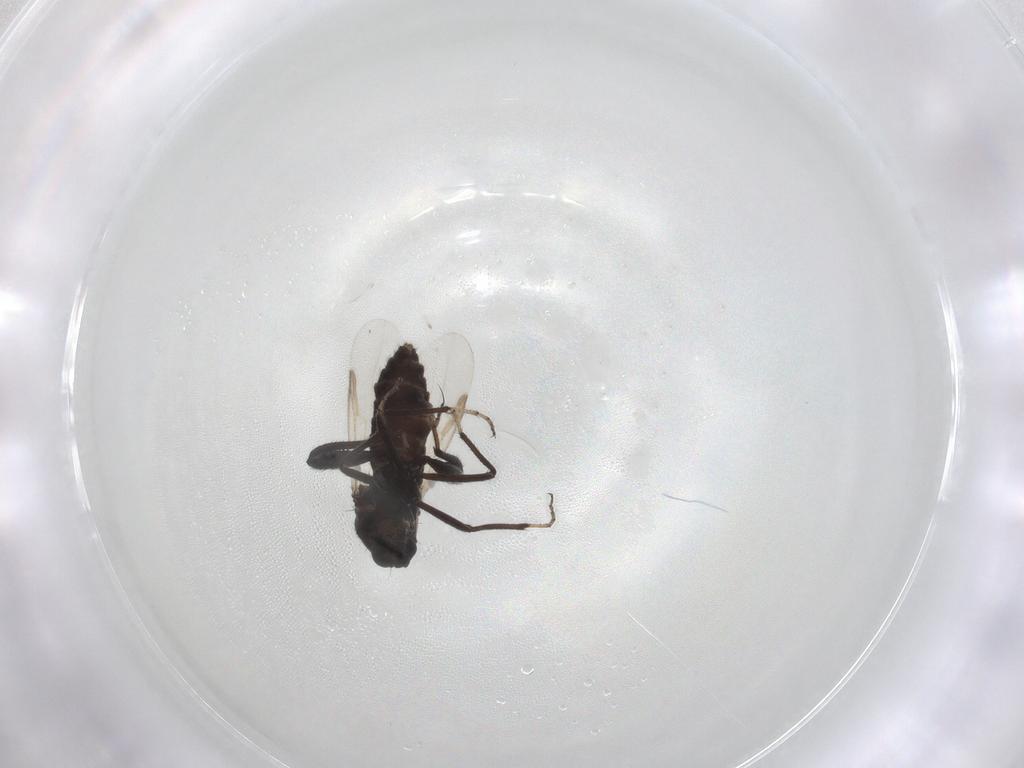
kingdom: Animalia
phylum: Arthropoda
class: Insecta
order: Diptera
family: Ceratopogonidae
